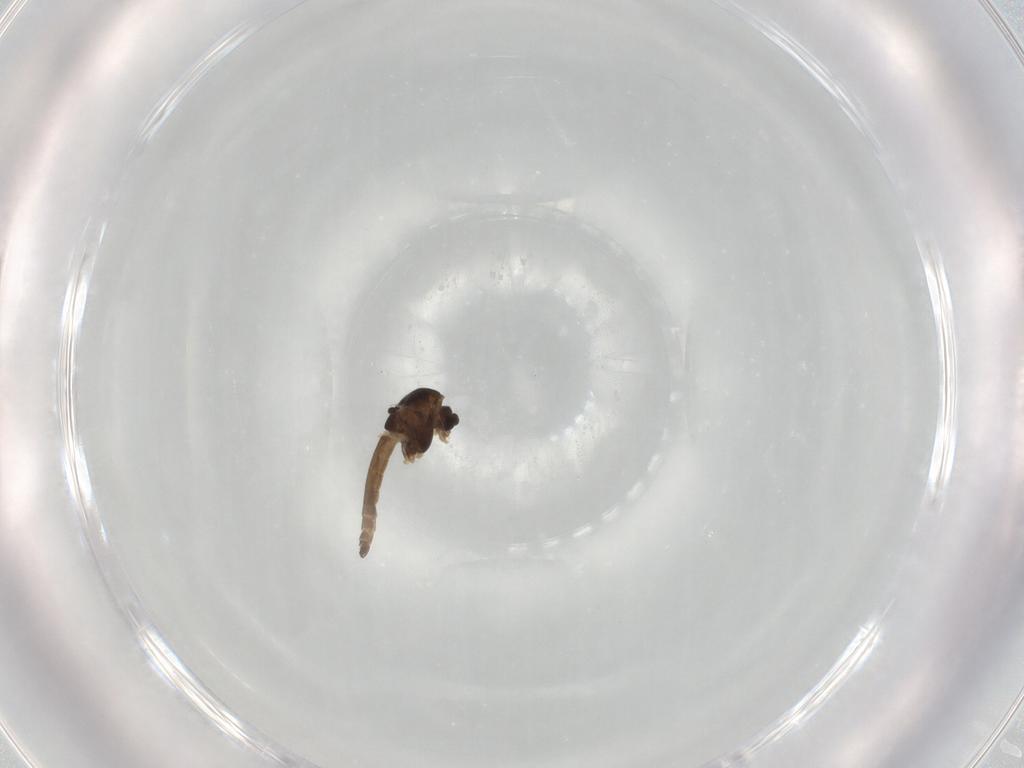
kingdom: Animalia
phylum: Arthropoda
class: Insecta
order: Diptera
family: Chironomidae
